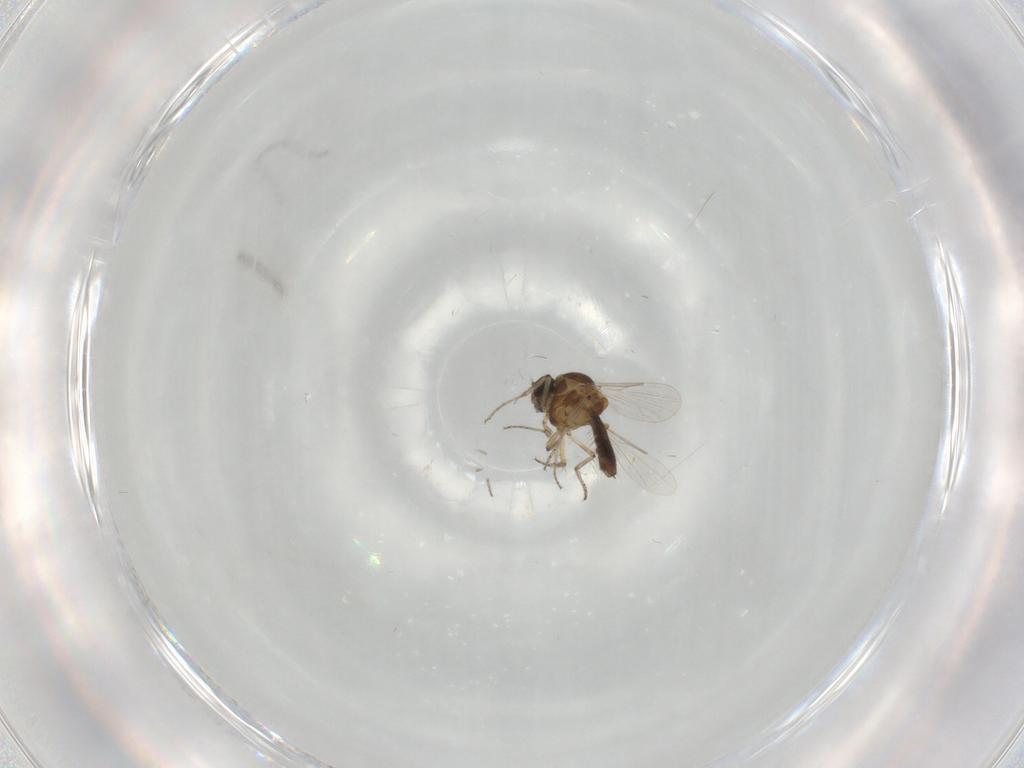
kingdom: Animalia
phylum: Arthropoda
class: Insecta
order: Diptera
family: Ceratopogonidae
